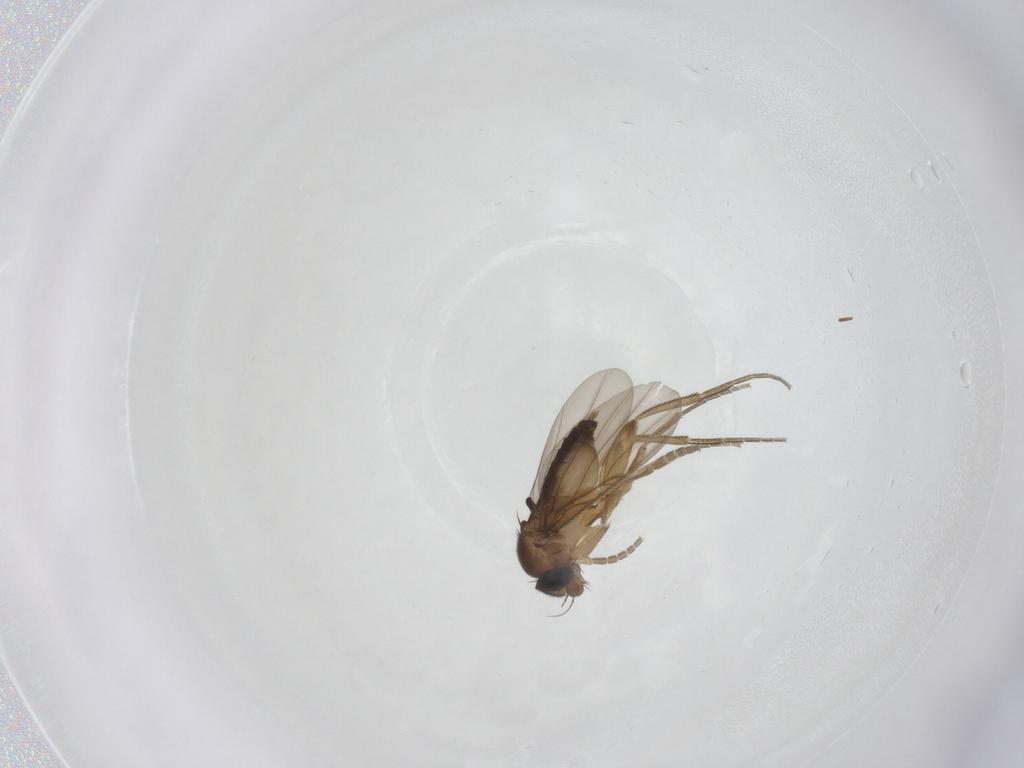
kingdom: Animalia
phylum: Arthropoda
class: Insecta
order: Diptera
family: Phoridae
